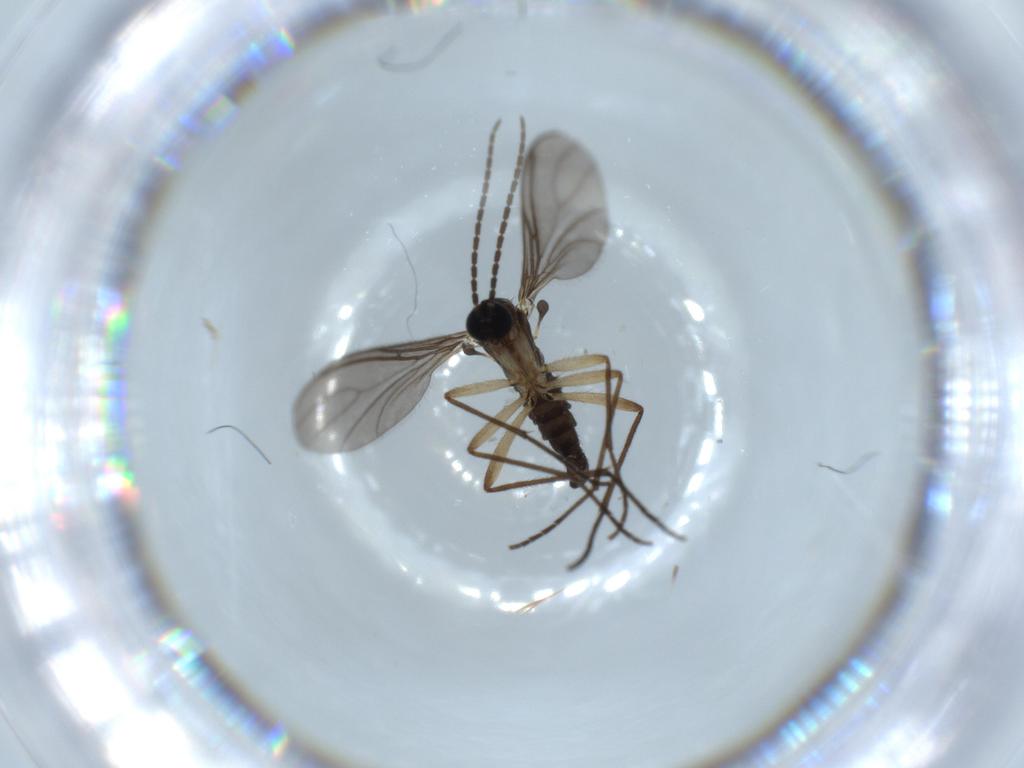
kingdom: Animalia
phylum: Arthropoda
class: Insecta
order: Diptera
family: Sciaridae
